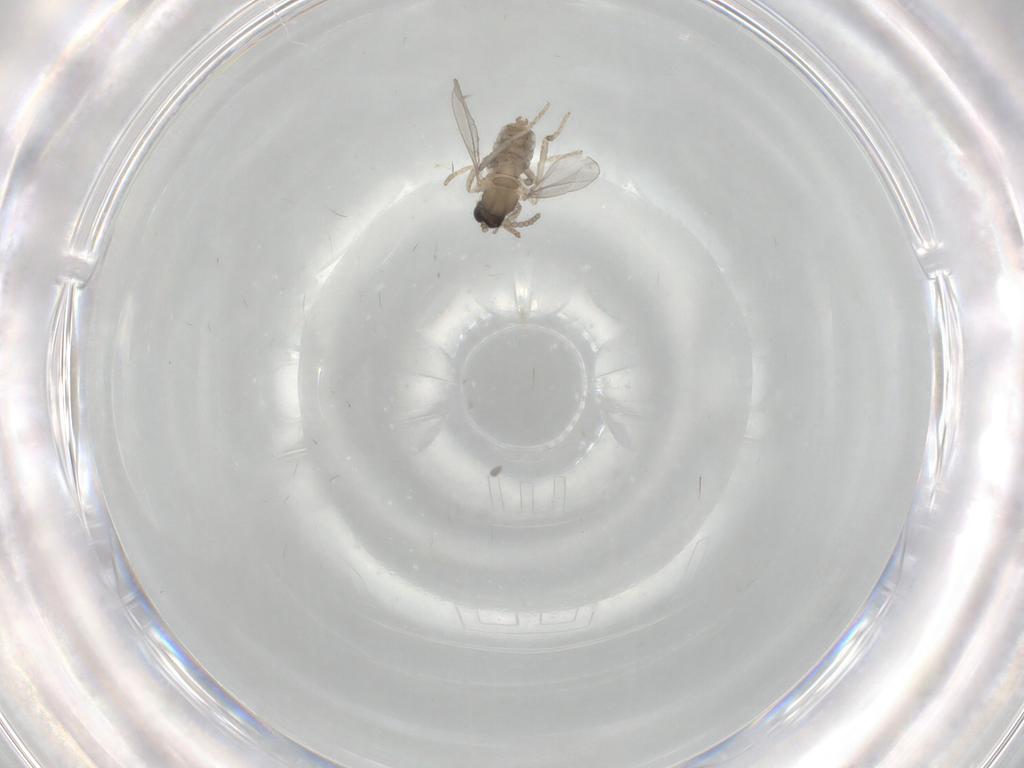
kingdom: Animalia
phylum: Arthropoda
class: Insecta
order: Diptera
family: Cecidomyiidae
